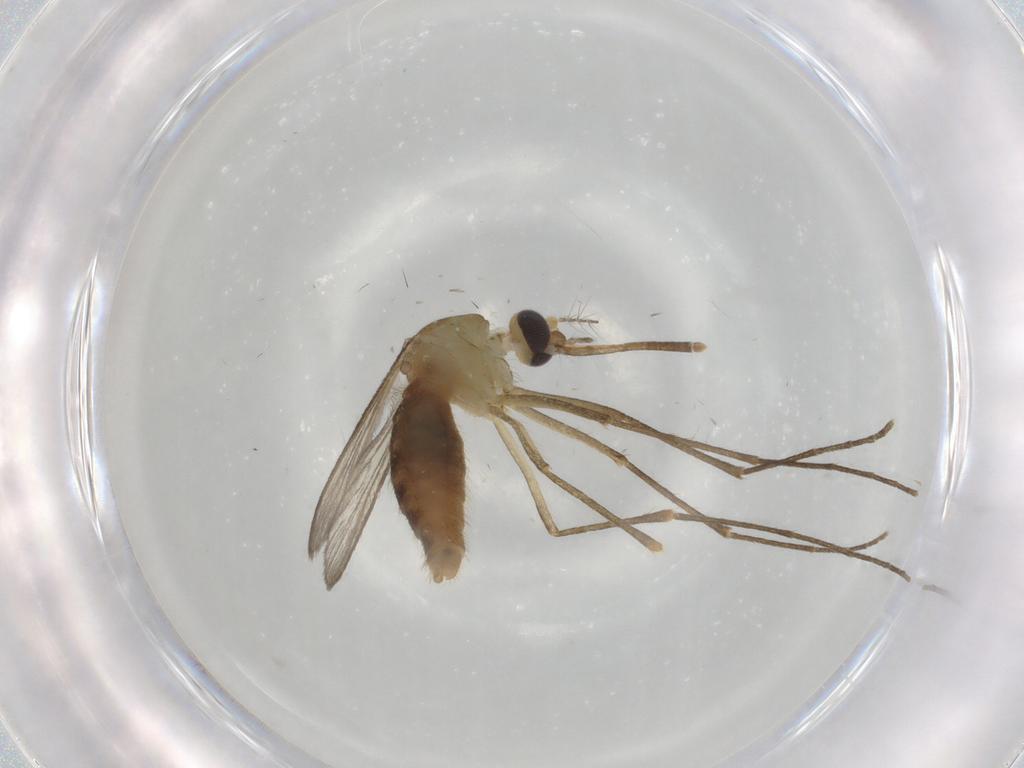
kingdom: Animalia
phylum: Arthropoda
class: Insecta
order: Diptera
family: Culicidae
